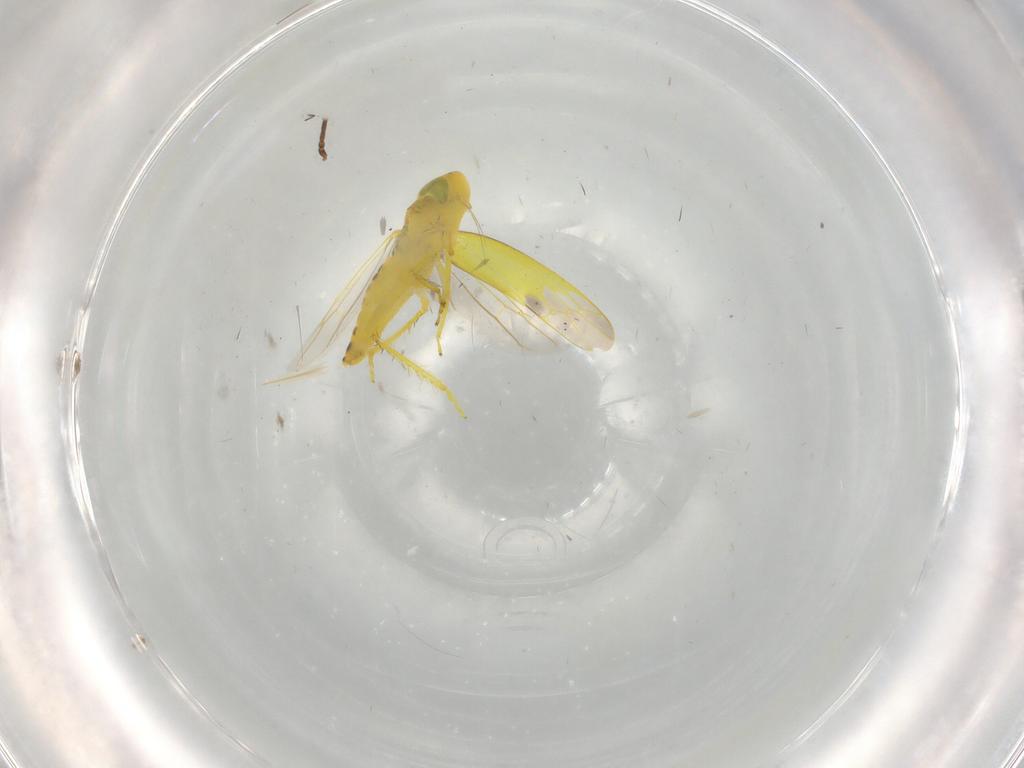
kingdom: Animalia
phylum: Arthropoda
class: Insecta
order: Hemiptera
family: Cicadellidae
